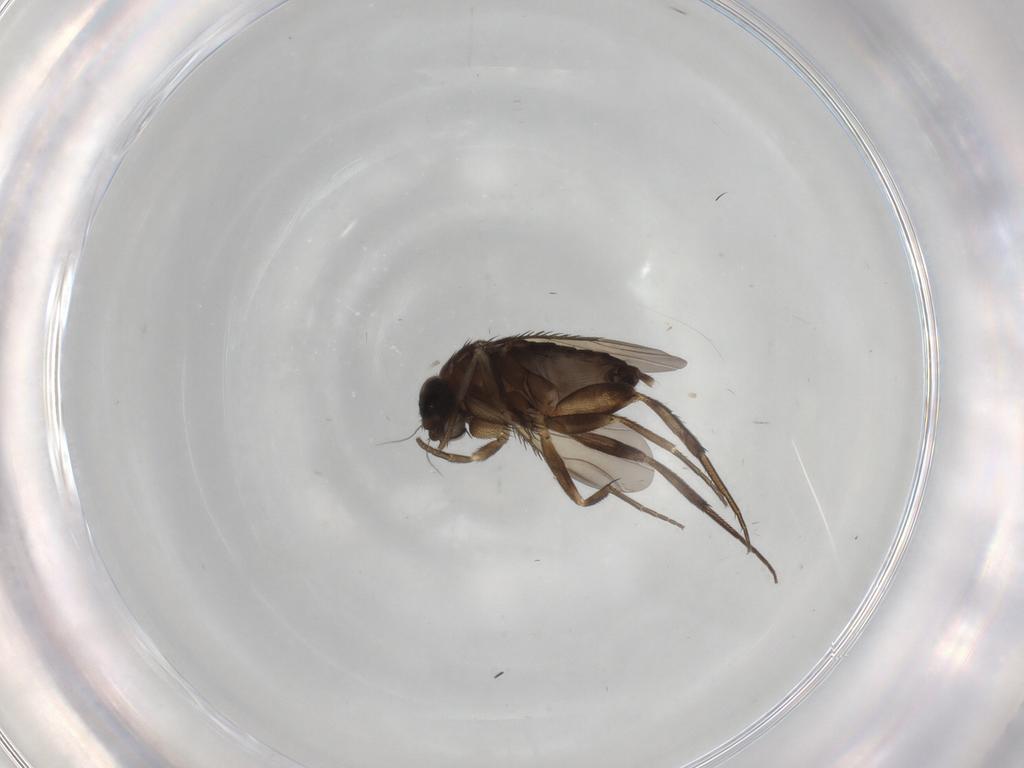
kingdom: Animalia
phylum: Arthropoda
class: Insecta
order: Diptera
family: Phoridae
